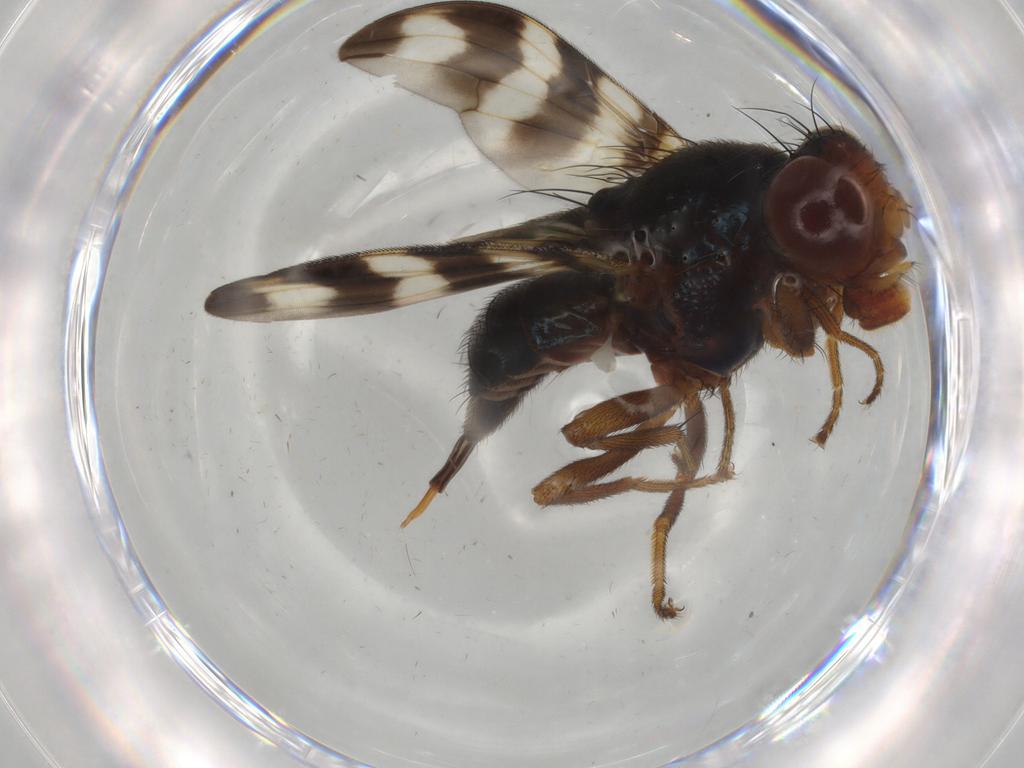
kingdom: Animalia
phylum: Arthropoda
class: Insecta
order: Diptera
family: Ulidiidae
